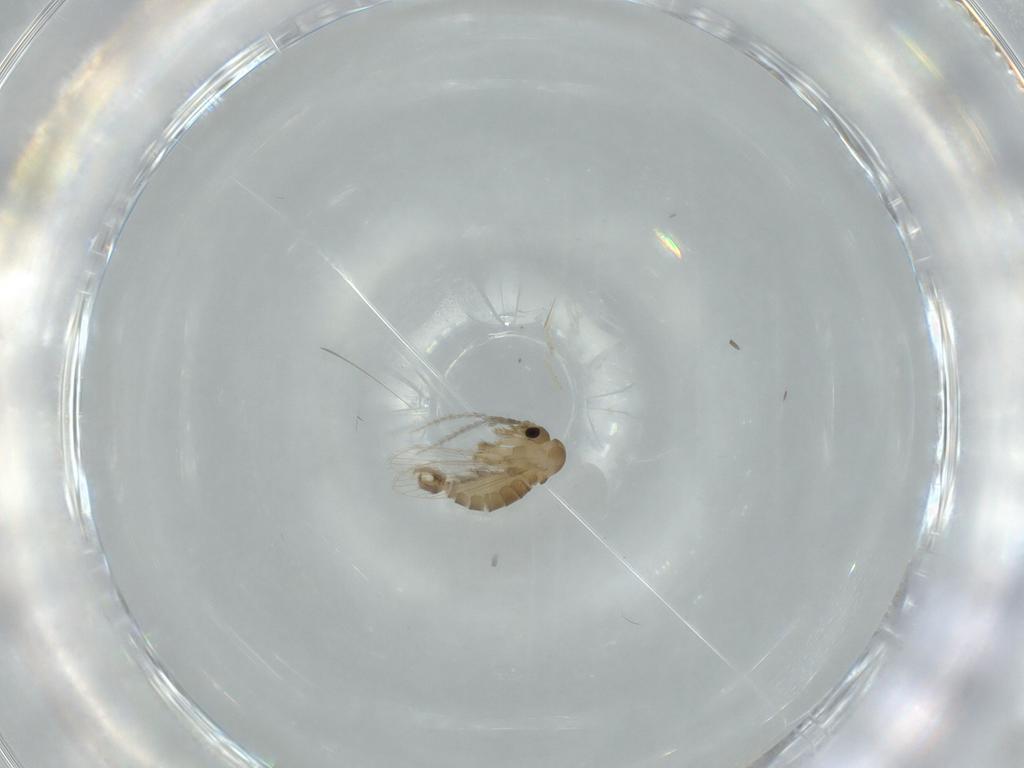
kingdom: Animalia
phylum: Arthropoda
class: Insecta
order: Diptera
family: Psychodidae
